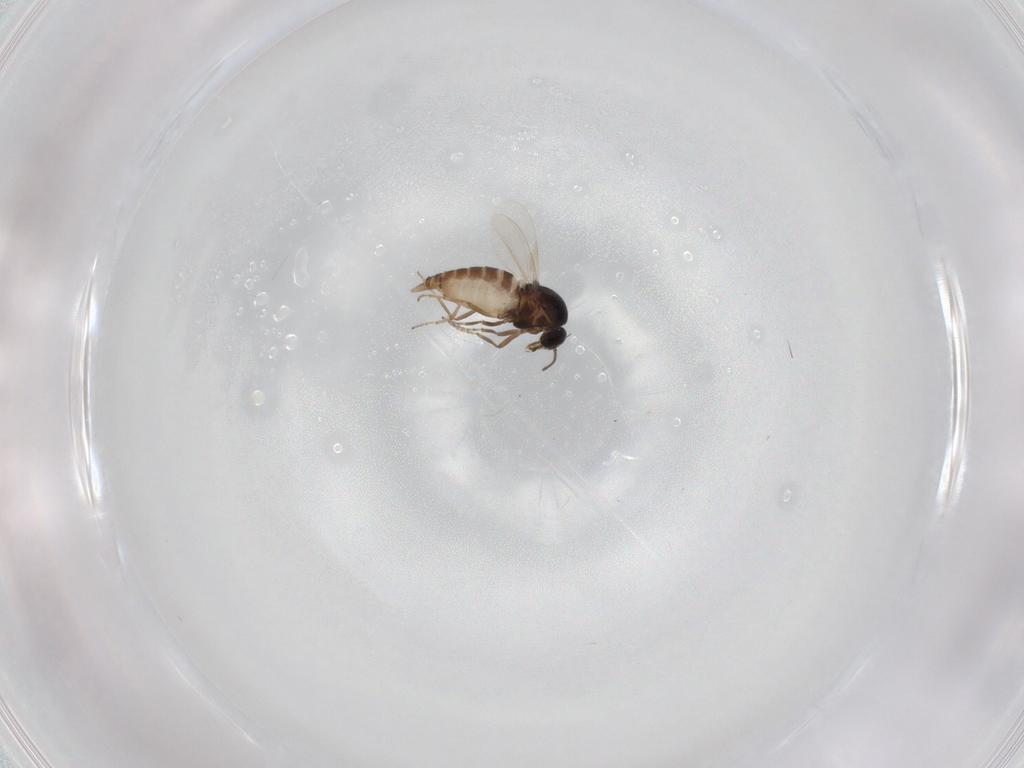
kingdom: Animalia
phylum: Arthropoda
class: Insecta
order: Diptera
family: Ceratopogonidae
